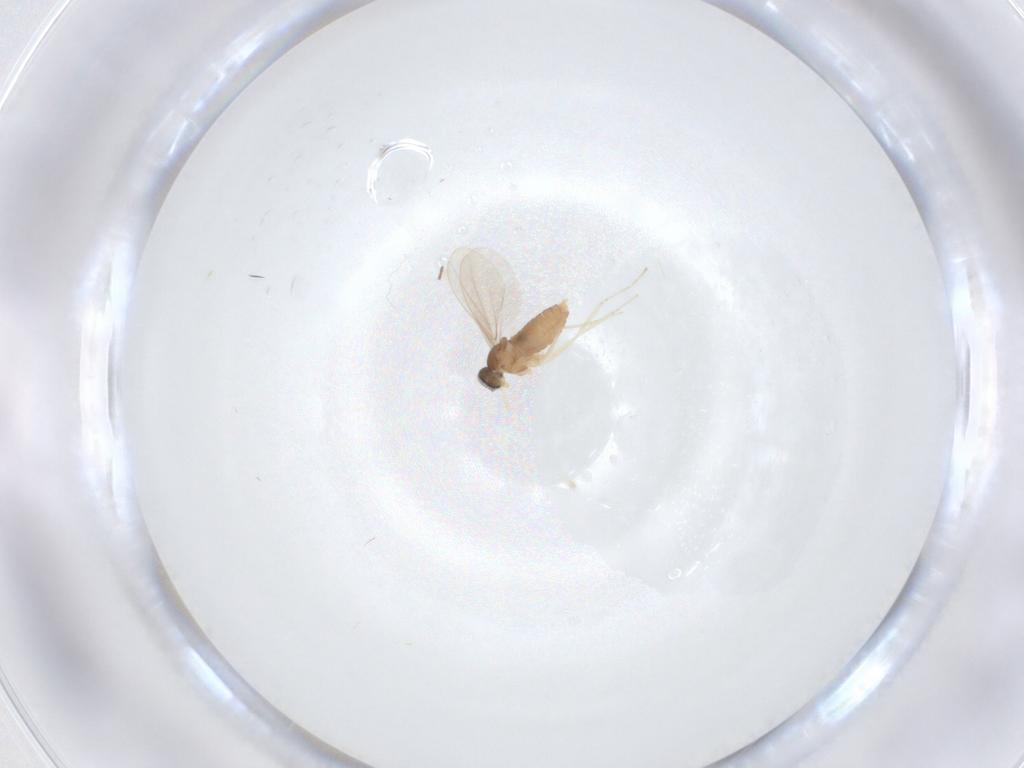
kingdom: Animalia
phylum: Arthropoda
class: Insecta
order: Diptera
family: Cecidomyiidae
